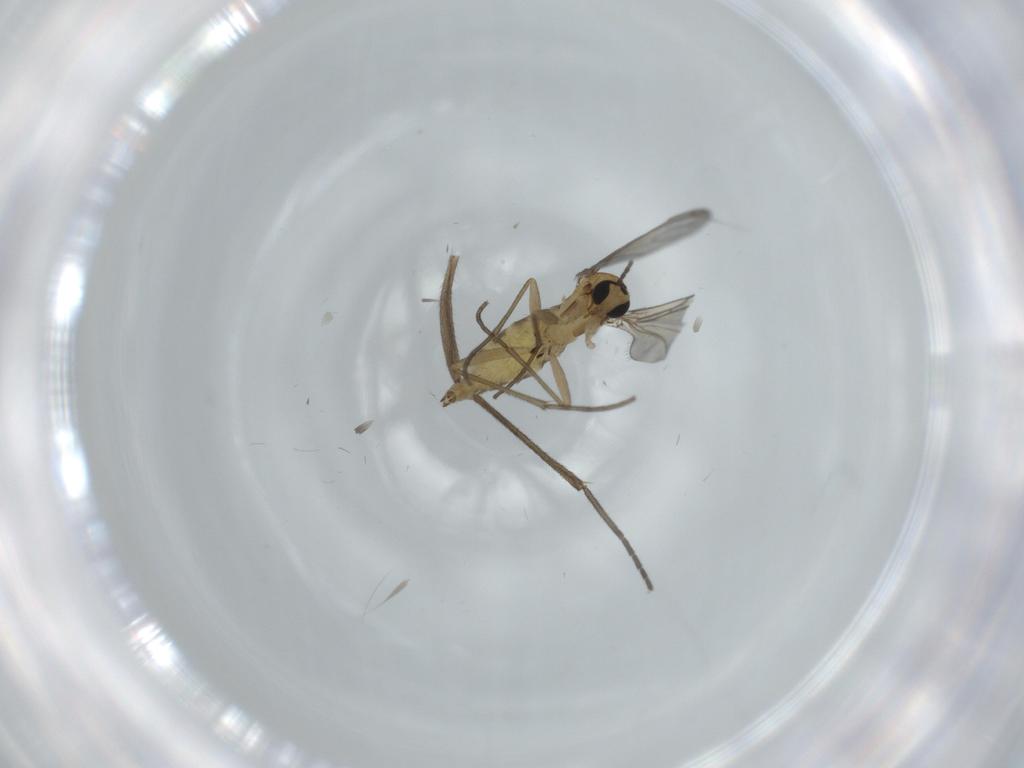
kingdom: Animalia
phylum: Arthropoda
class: Insecta
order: Diptera
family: Sciaridae
